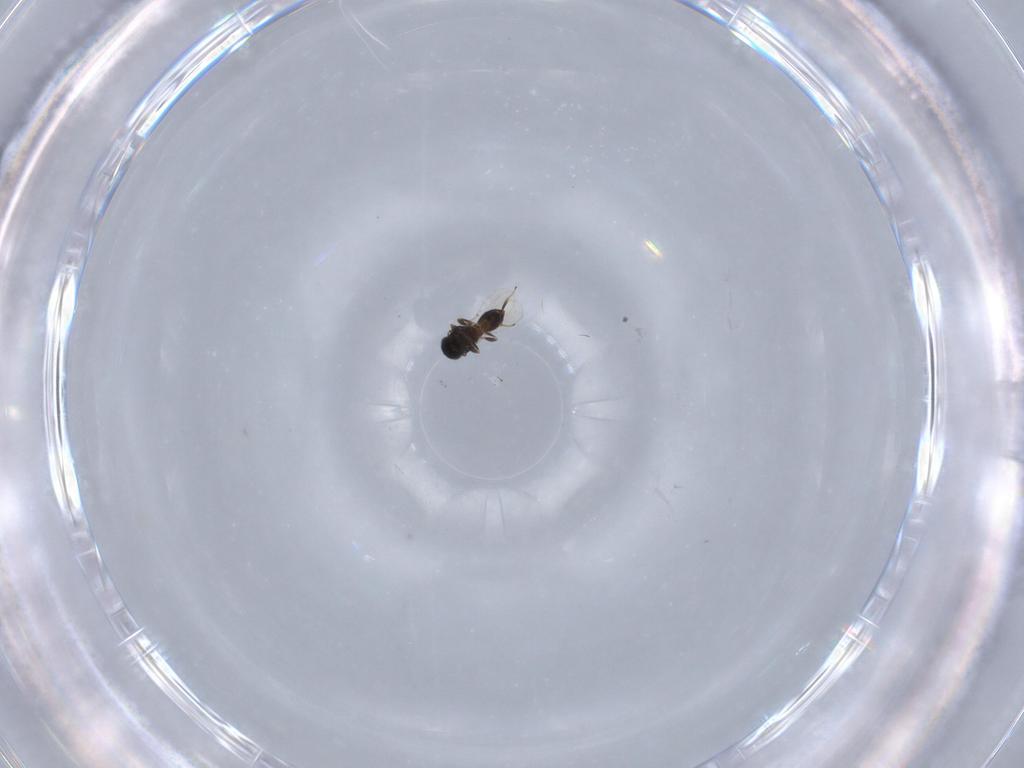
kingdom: Animalia
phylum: Arthropoda
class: Insecta
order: Hymenoptera
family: Platygastridae
